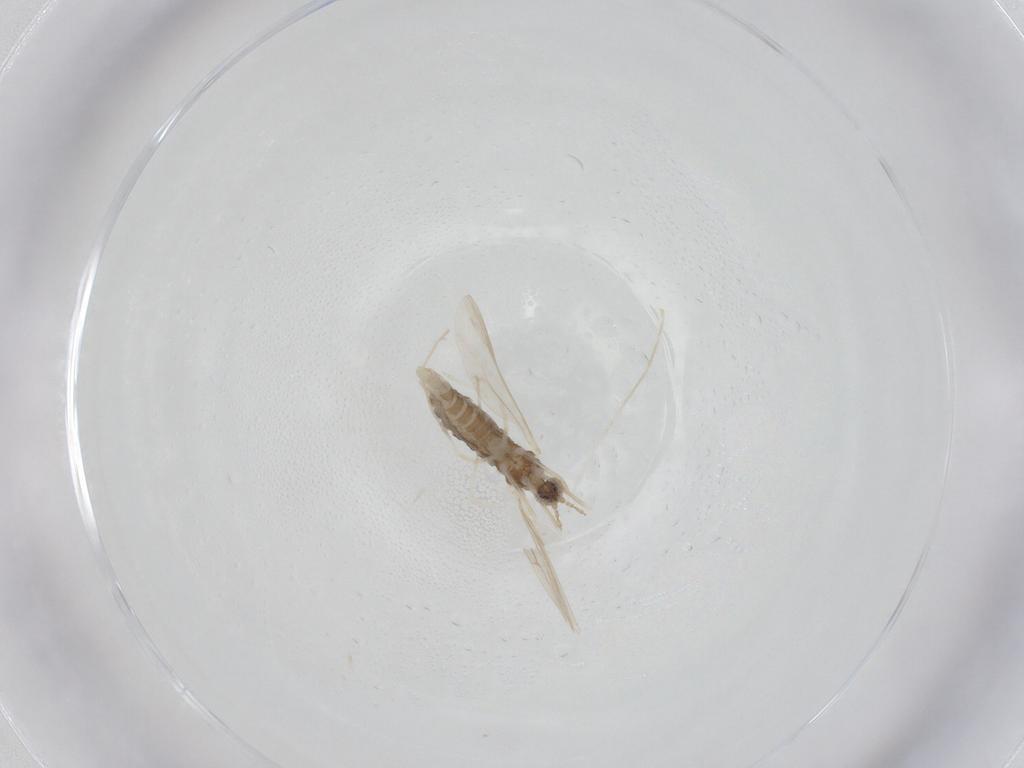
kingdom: Animalia
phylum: Arthropoda
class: Insecta
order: Diptera
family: Cecidomyiidae
